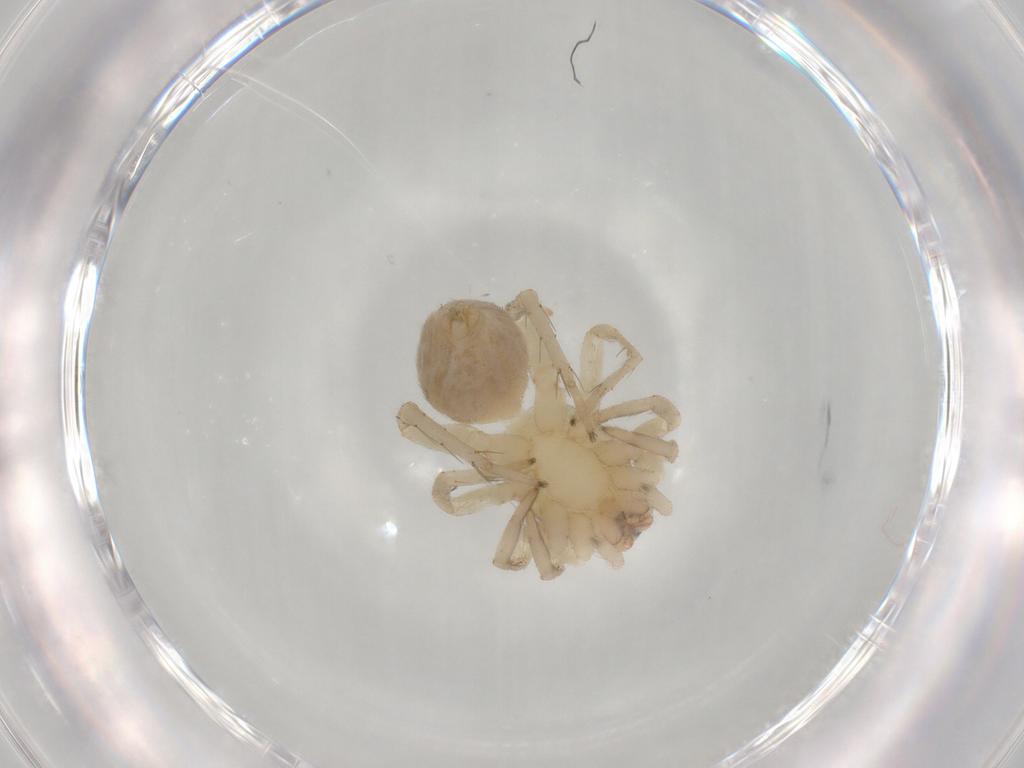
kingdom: Animalia
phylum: Arthropoda
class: Arachnida
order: Araneae
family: Clubionidae
